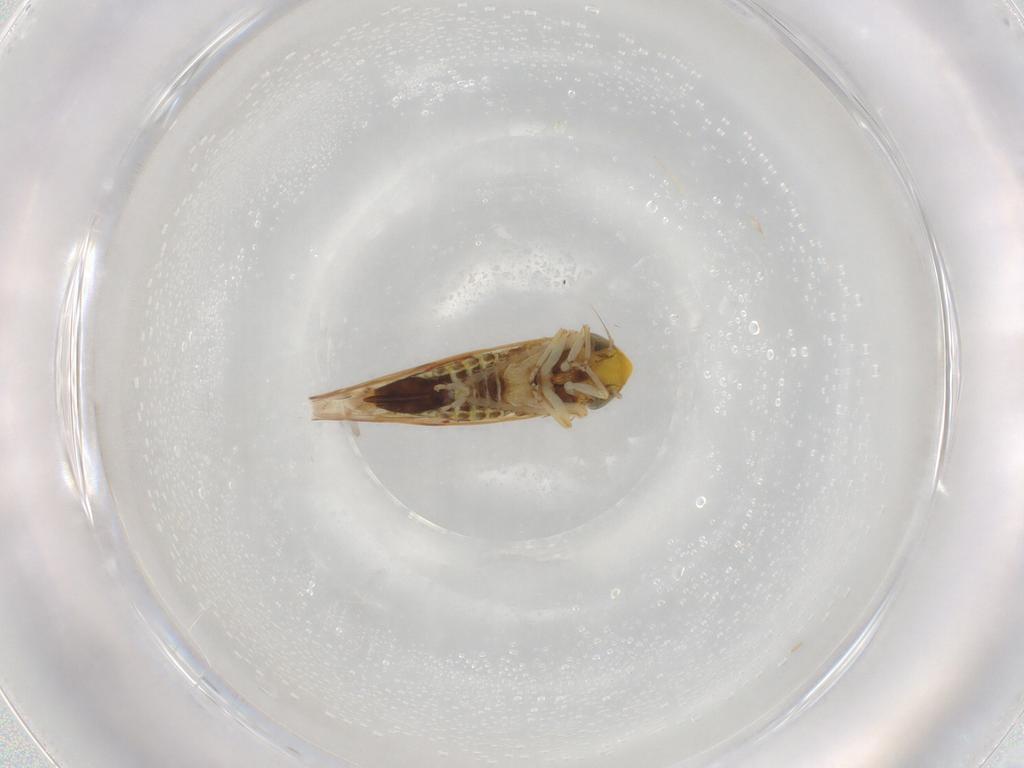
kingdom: Animalia
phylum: Arthropoda
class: Insecta
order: Hemiptera
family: Cicadellidae
